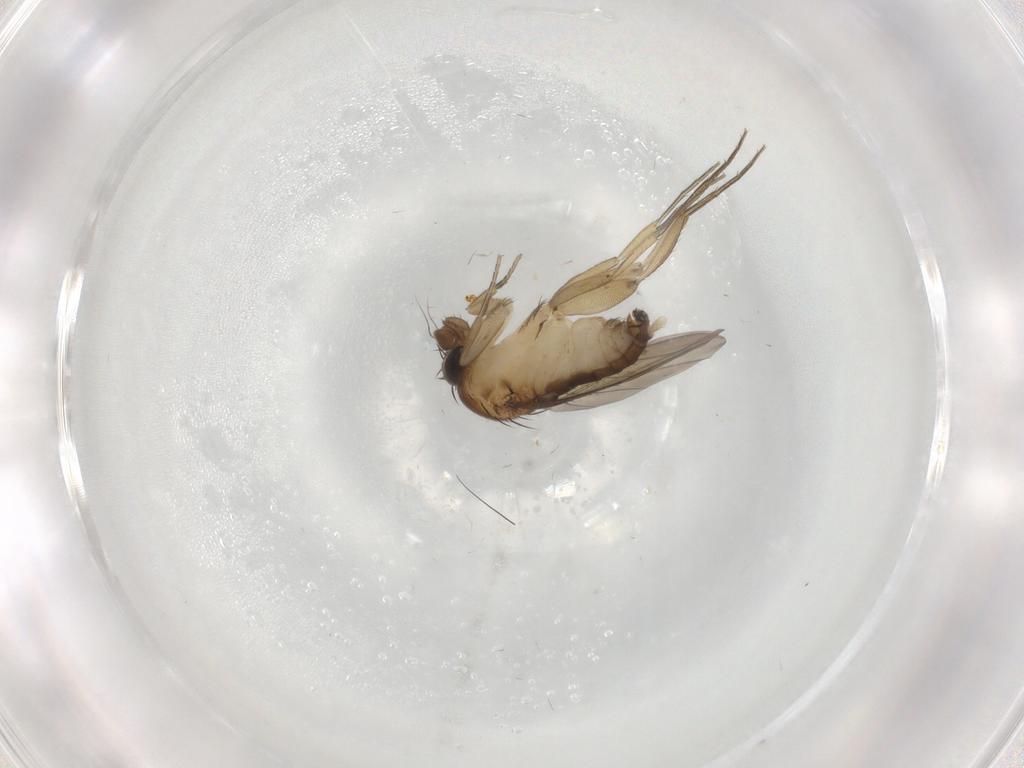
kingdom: Animalia
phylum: Arthropoda
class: Insecta
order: Diptera
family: Phoridae
